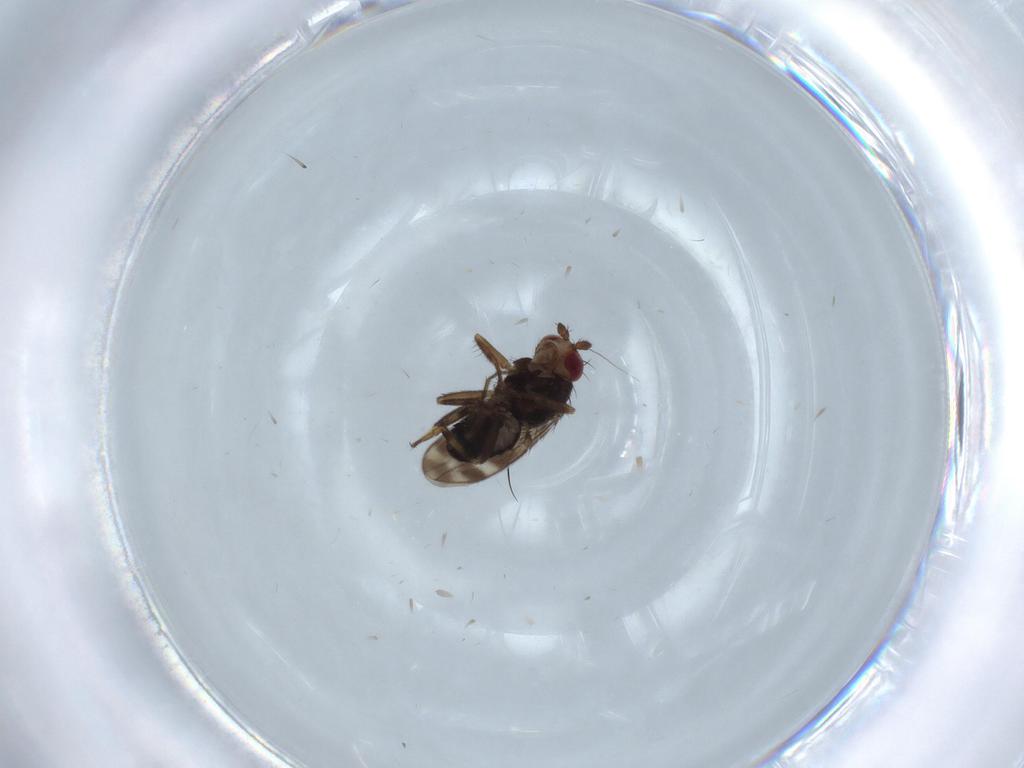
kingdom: Animalia
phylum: Arthropoda
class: Insecta
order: Diptera
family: Sphaeroceridae
